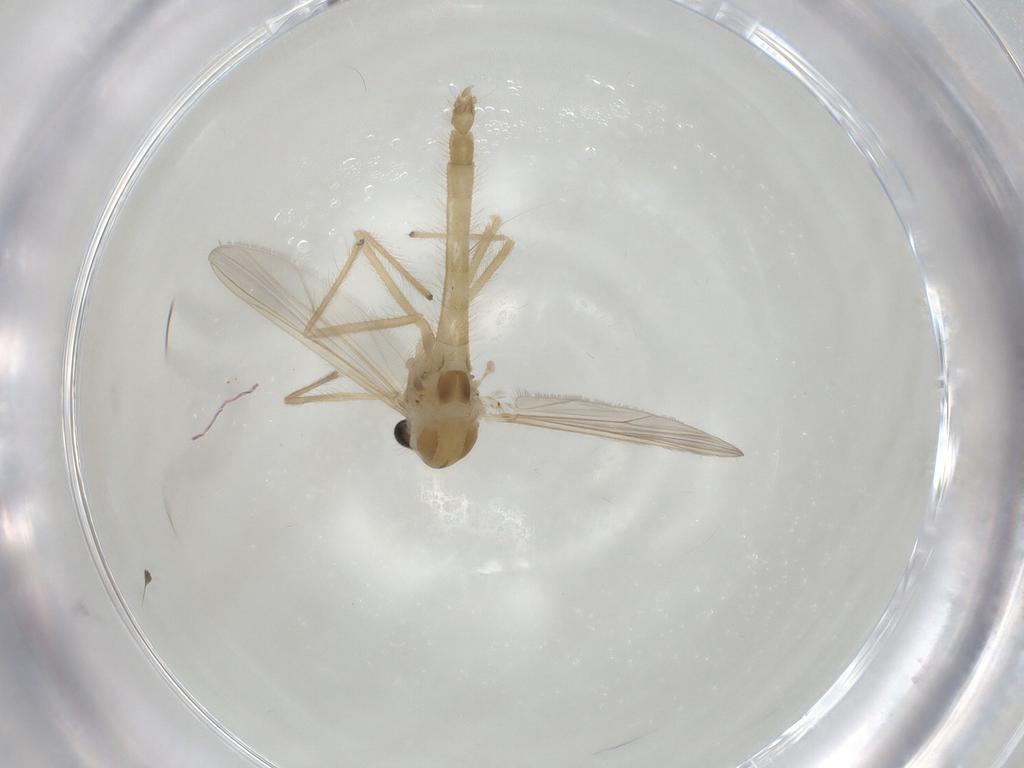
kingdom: Animalia
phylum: Arthropoda
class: Insecta
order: Diptera
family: Chironomidae
